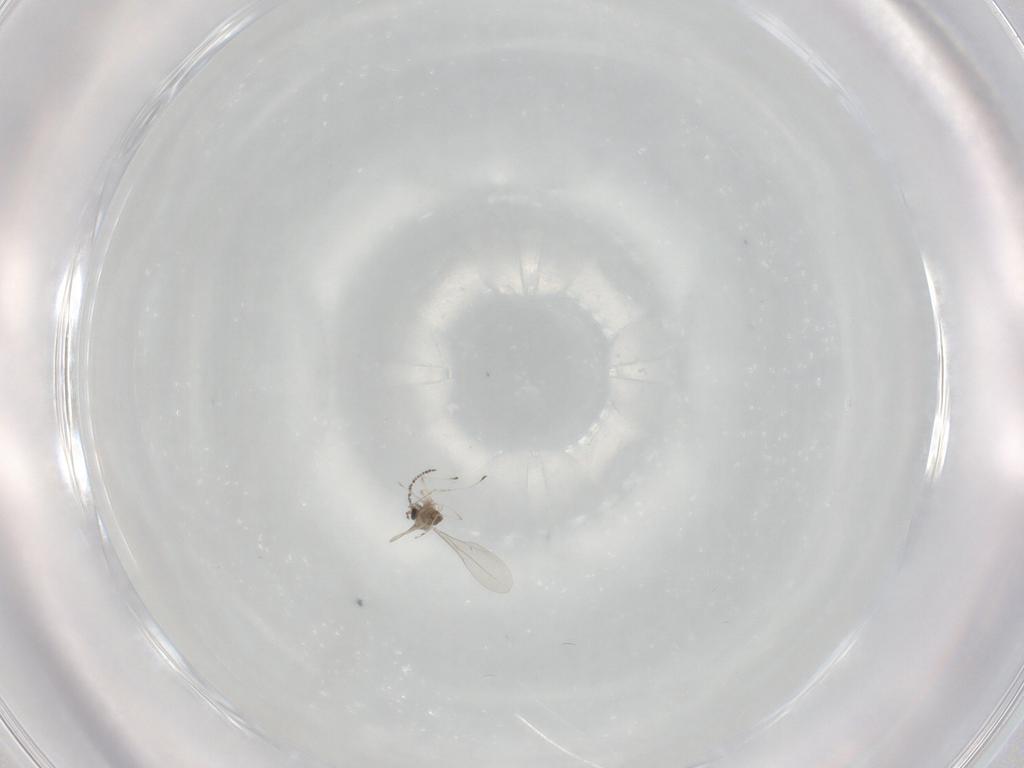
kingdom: Animalia
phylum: Arthropoda
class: Insecta
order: Diptera
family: Cecidomyiidae
